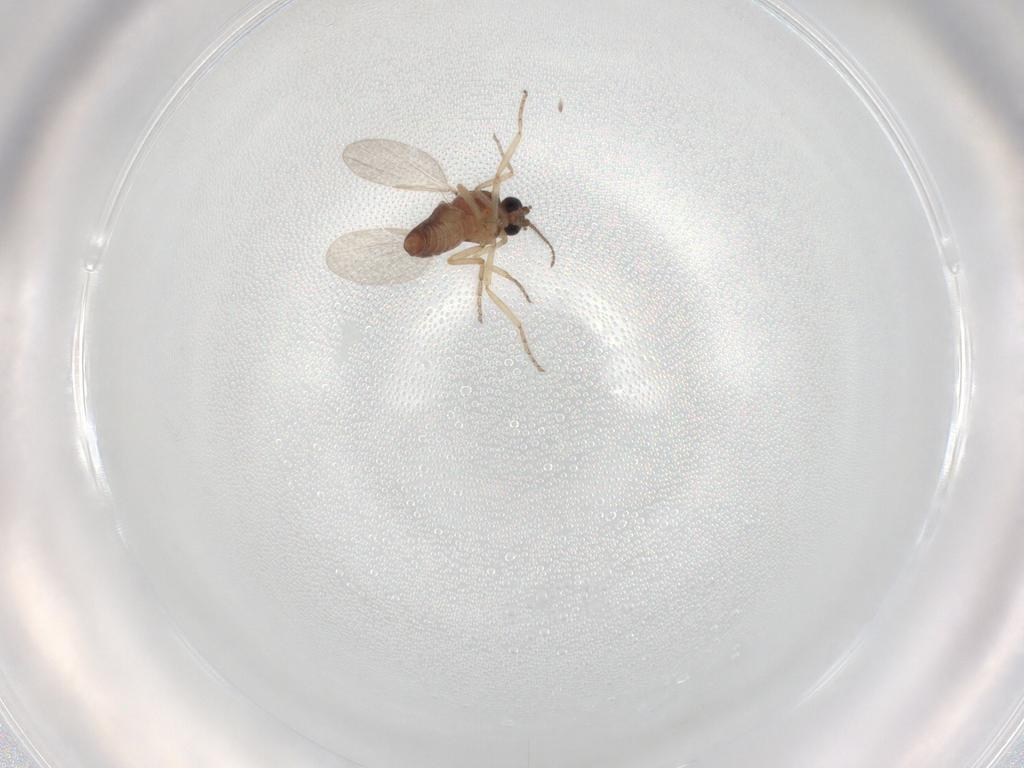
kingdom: Animalia
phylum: Arthropoda
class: Insecta
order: Diptera
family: Ceratopogonidae
